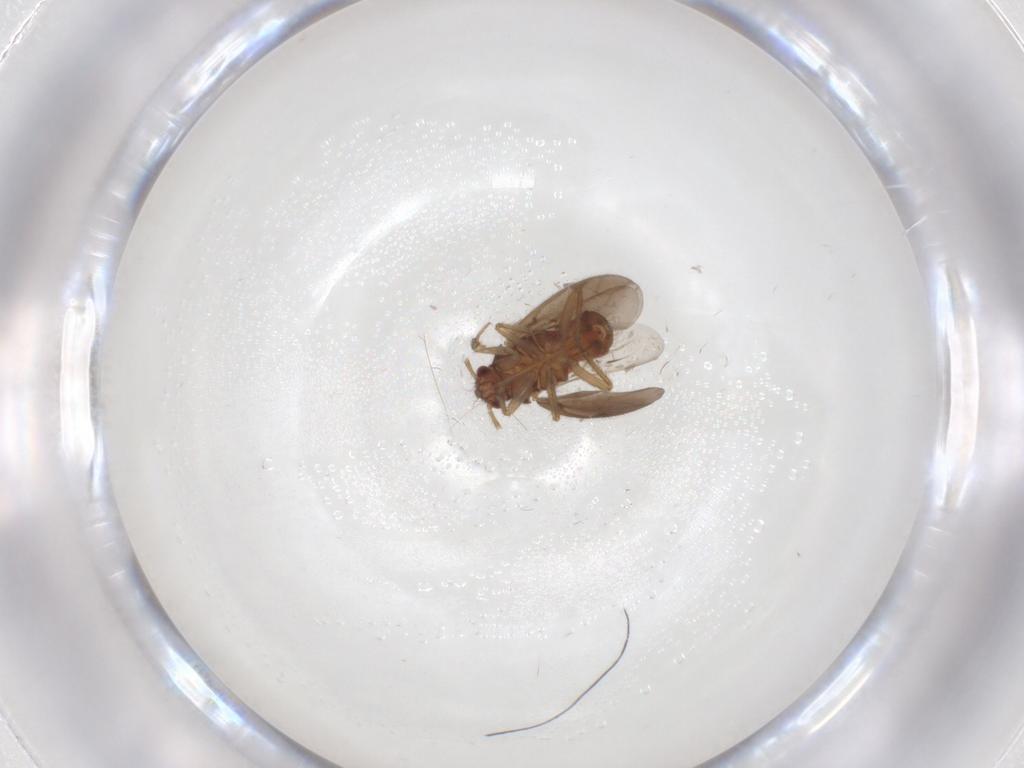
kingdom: Animalia
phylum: Arthropoda
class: Insecta
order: Hemiptera
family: Ceratocombidae
